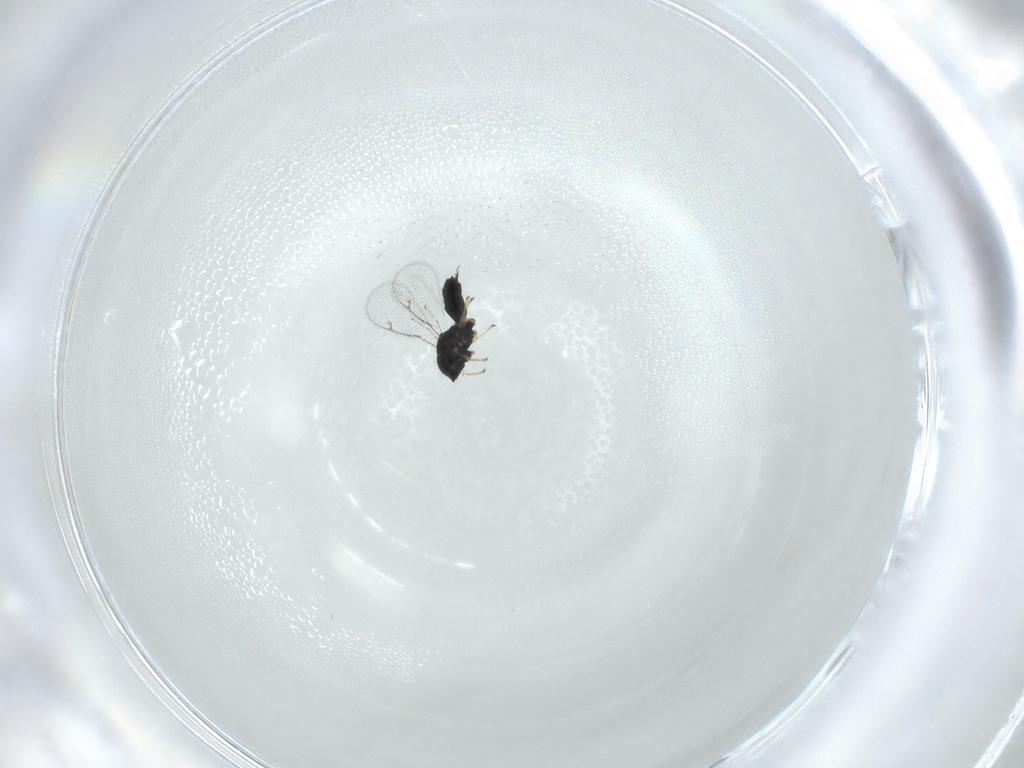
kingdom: Animalia
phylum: Arthropoda
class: Insecta
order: Hymenoptera
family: Pteromalidae
